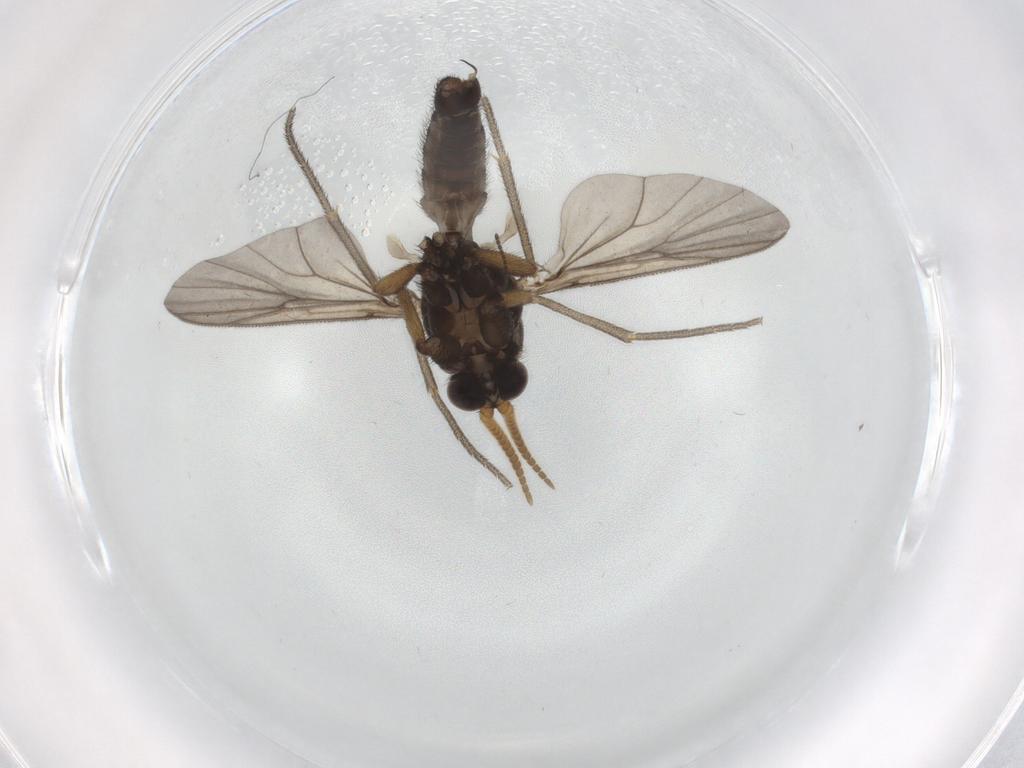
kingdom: Animalia
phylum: Arthropoda
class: Insecta
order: Diptera
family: Mycetophilidae
